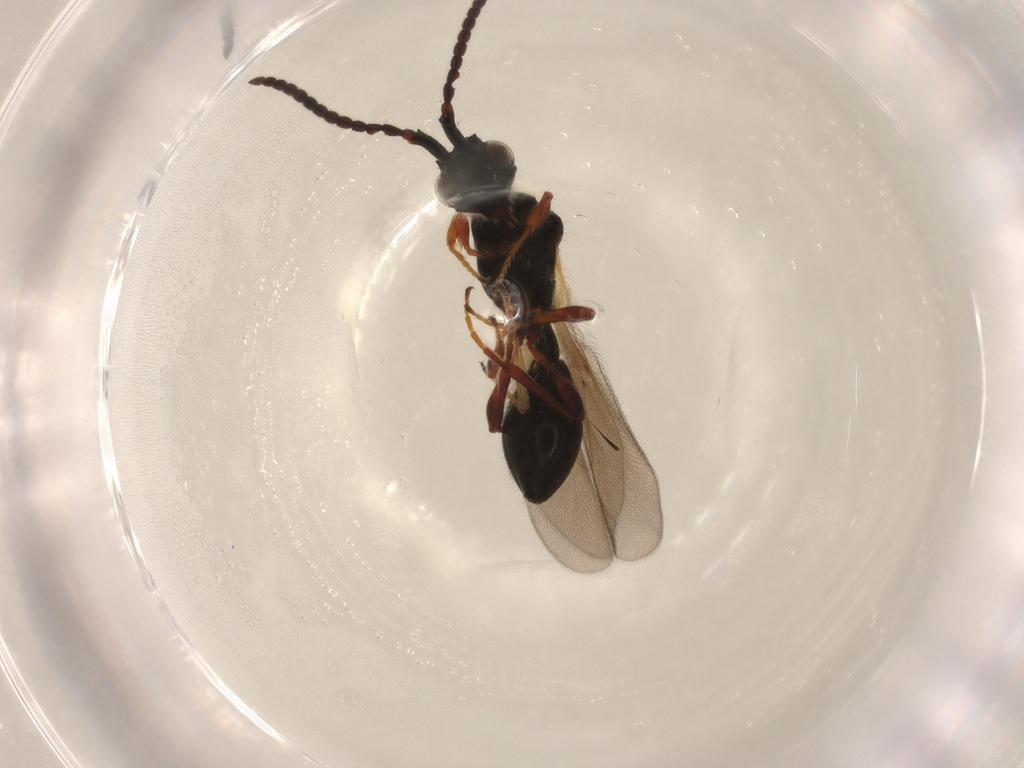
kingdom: Animalia
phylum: Arthropoda
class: Insecta
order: Hymenoptera
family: Diapriidae
